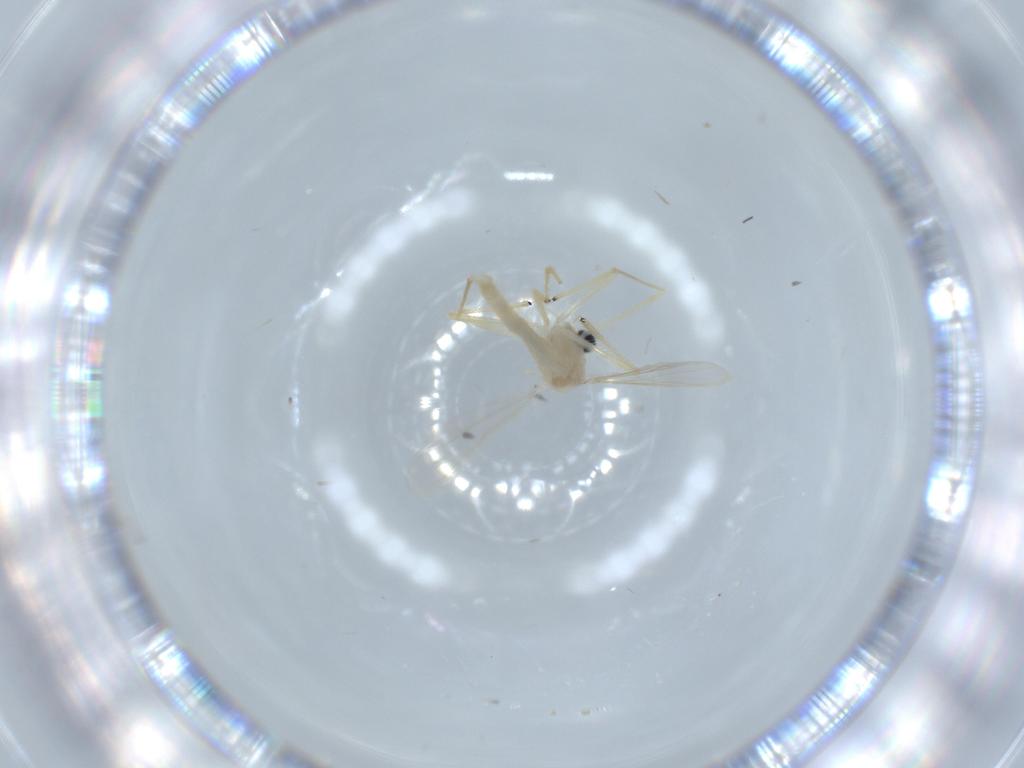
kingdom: Animalia
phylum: Arthropoda
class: Insecta
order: Diptera
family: Chironomidae
